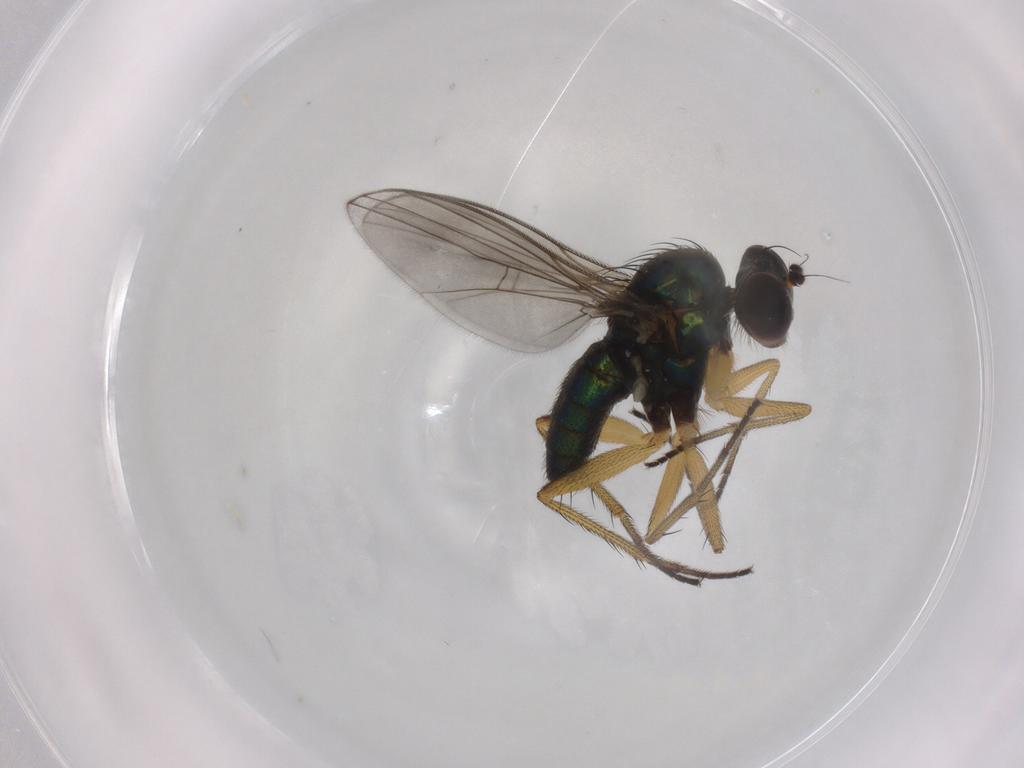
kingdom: Animalia
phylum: Arthropoda
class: Insecta
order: Diptera
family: Dolichopodidae
